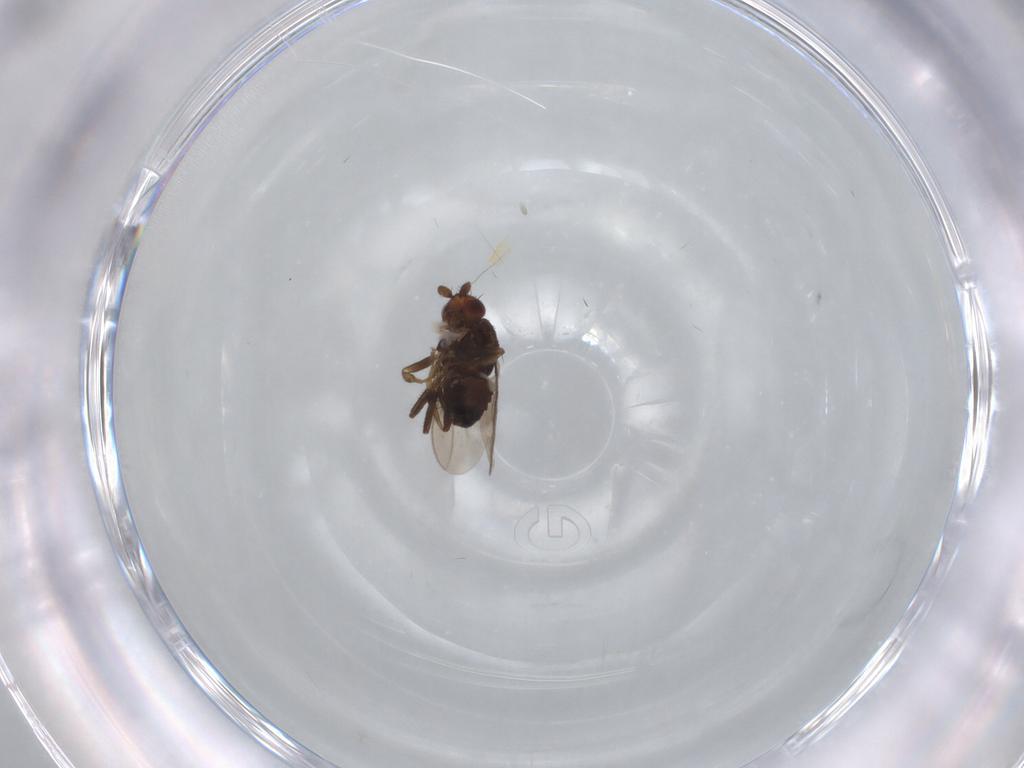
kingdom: Animalia
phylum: Arthropoda
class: Insecta
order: Diptera
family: Sphaeroceridae
